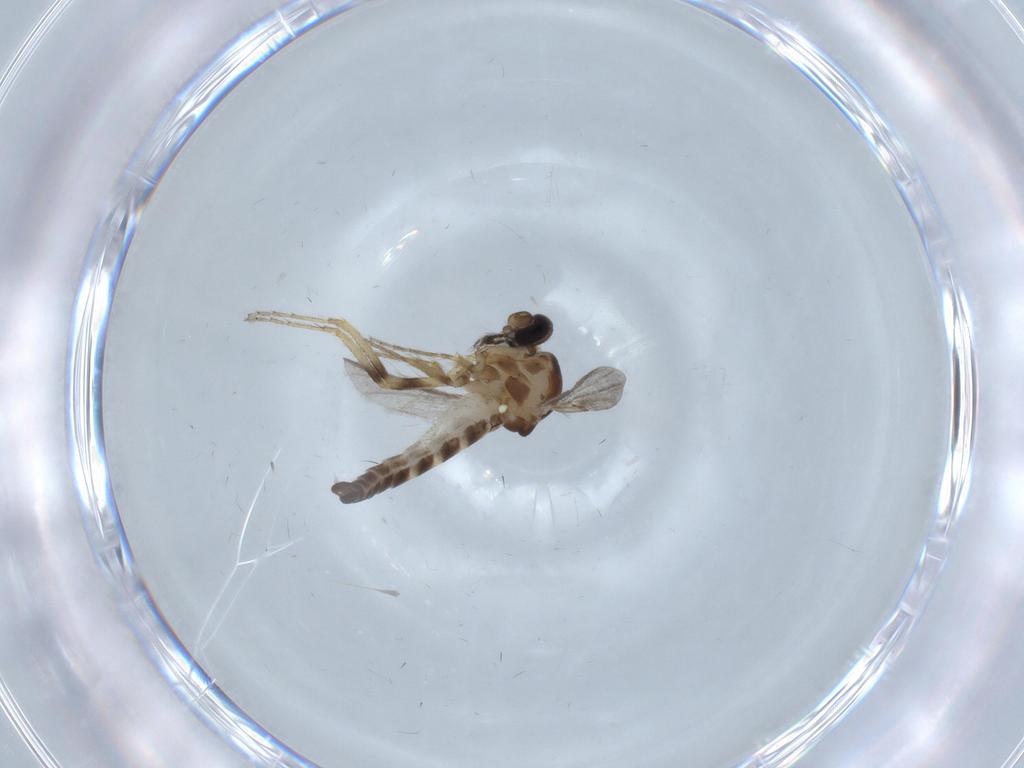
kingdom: Animalia
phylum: Arthropoda
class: Insecta
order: Diptera
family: Ceratopogonidae
